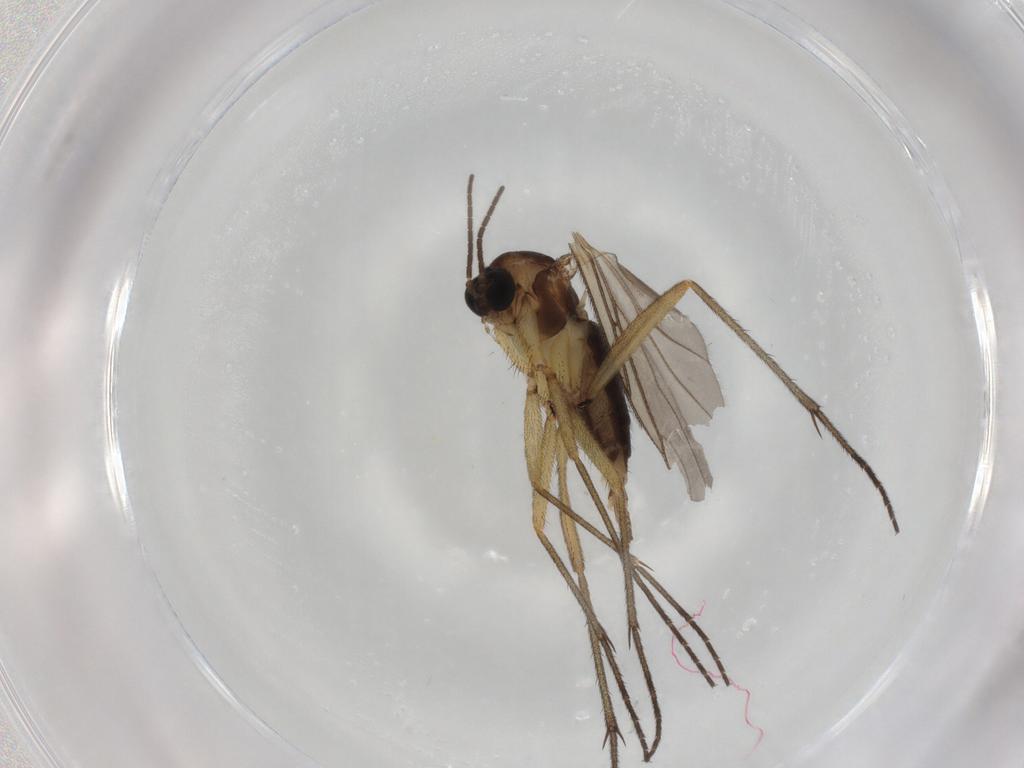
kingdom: Animalia
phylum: Arthropoda
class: Insecta
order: Diptera
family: Sciaridae
